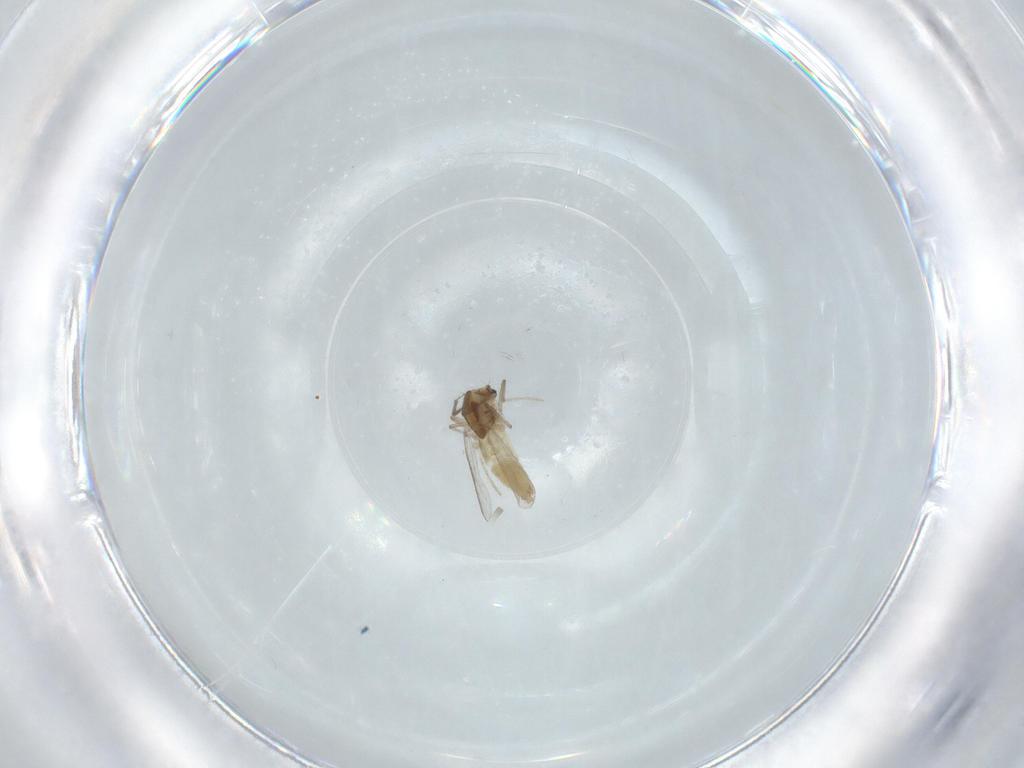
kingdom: Animalia
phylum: Arthropoda
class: Insecta
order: Diptera
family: Chironomidae
